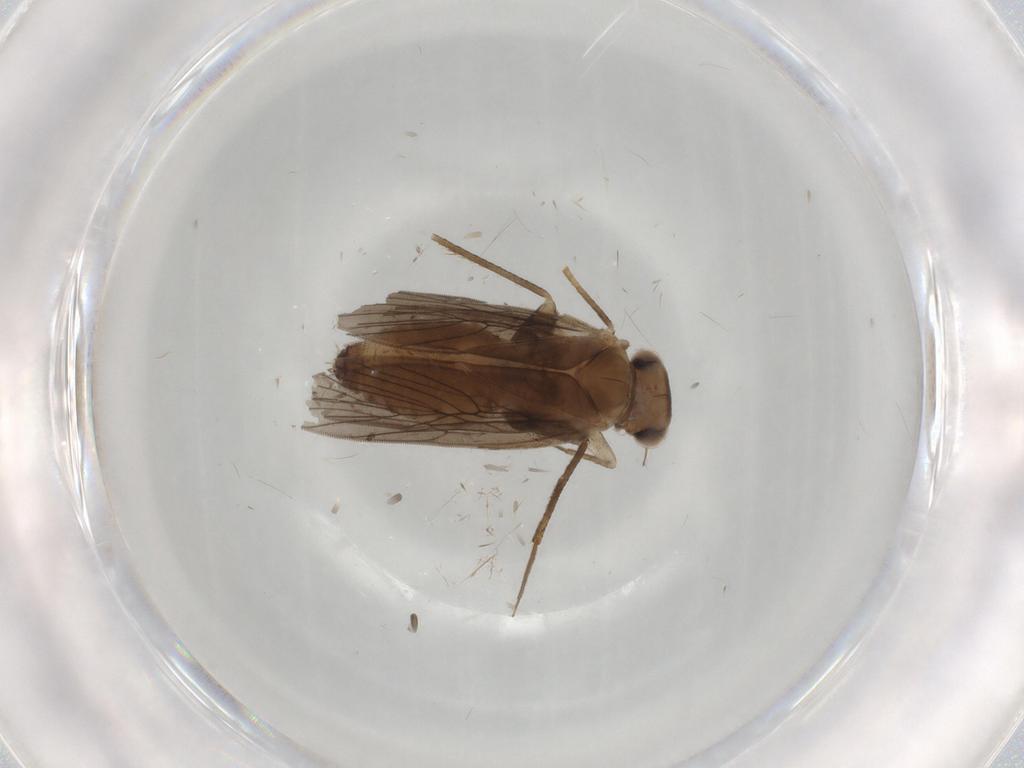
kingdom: Animalia
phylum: Arthropoda
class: Insecta
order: Psocodea
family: Lepidopsocidae
